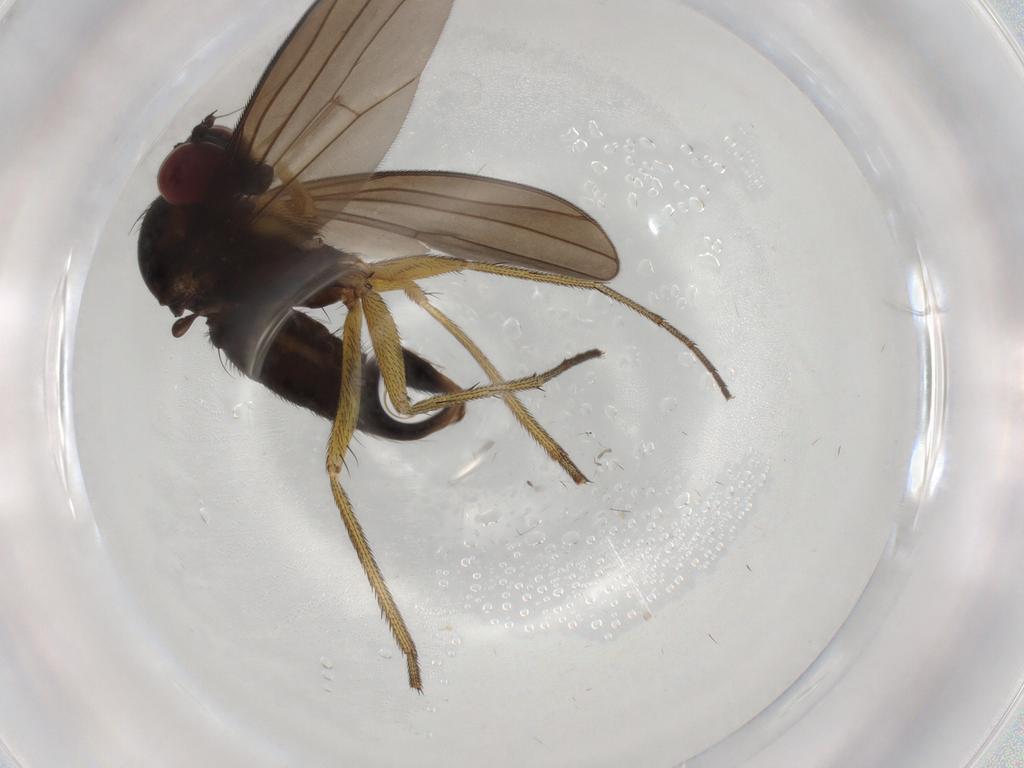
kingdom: Animalia
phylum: Arthropoda
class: Insecta
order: Diptera
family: Dolichopodidae
